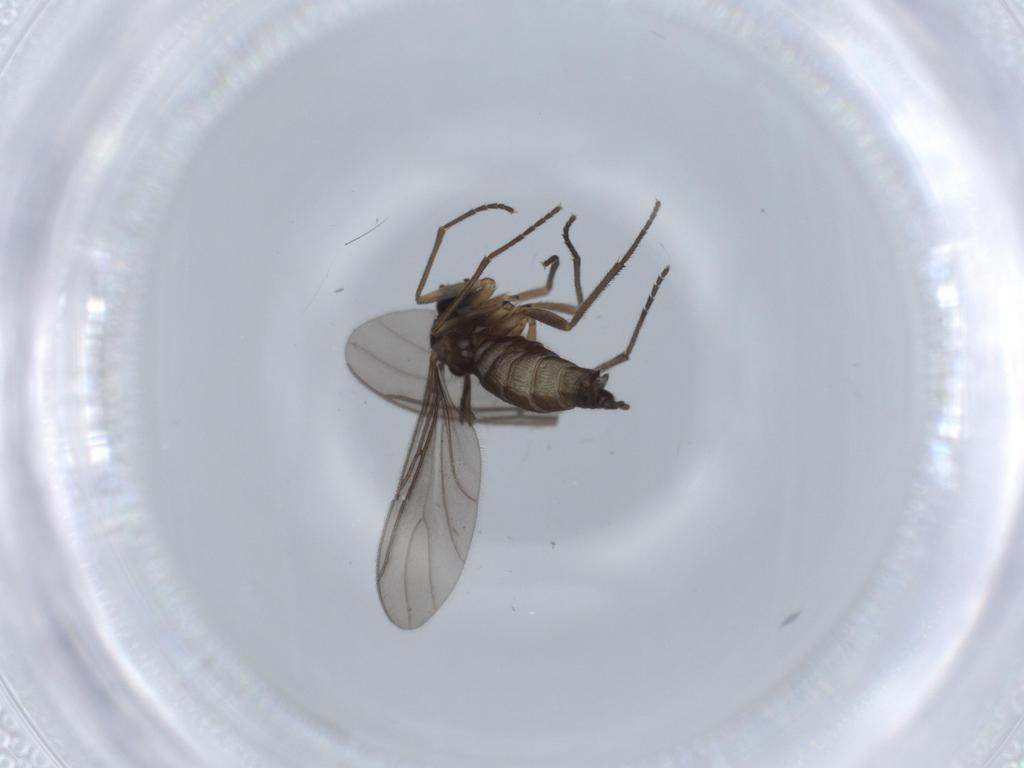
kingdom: Animalia
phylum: Arthropoda
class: Insecta
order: Diptera
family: Sciaridae
